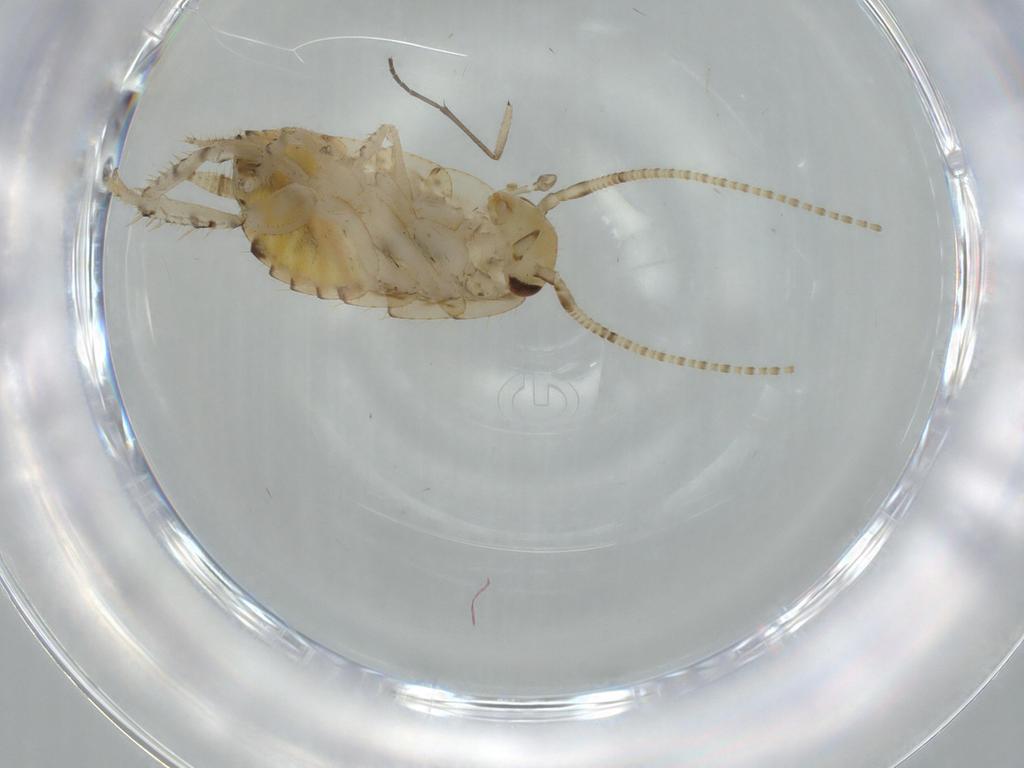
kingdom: Animalia
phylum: Arthropoda
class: Insecta
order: Blattodea
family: Ectobiidae
